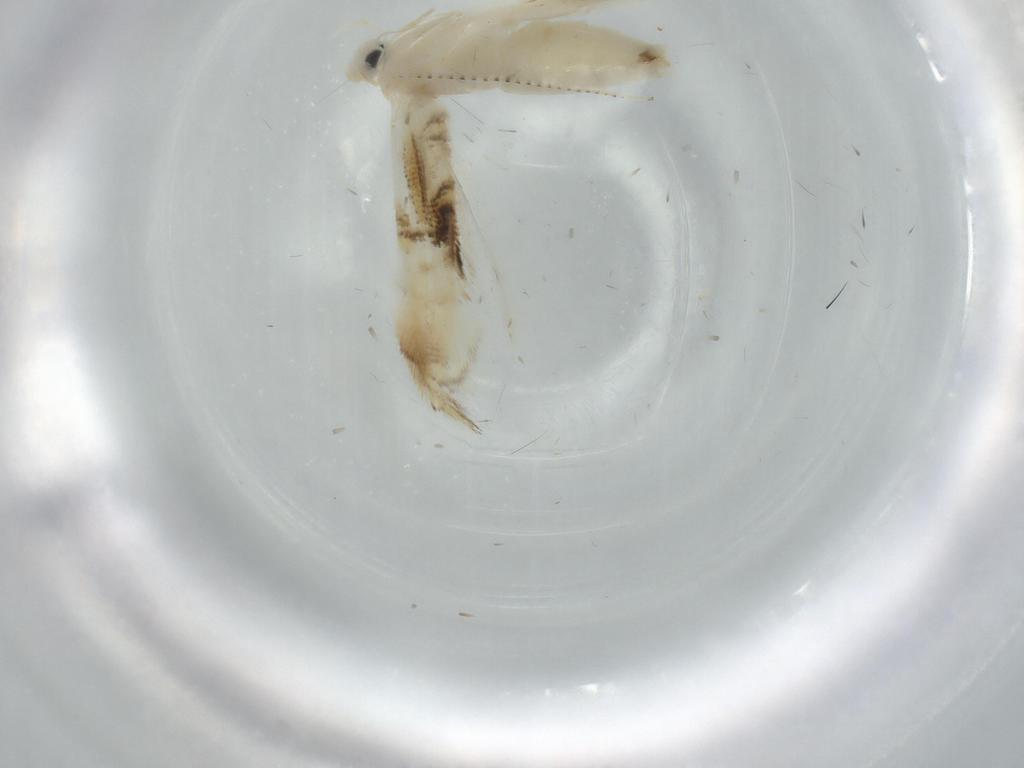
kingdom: Animalia
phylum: Arthropoda
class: Insecta
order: Lepidoptera
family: Gracillariidae
